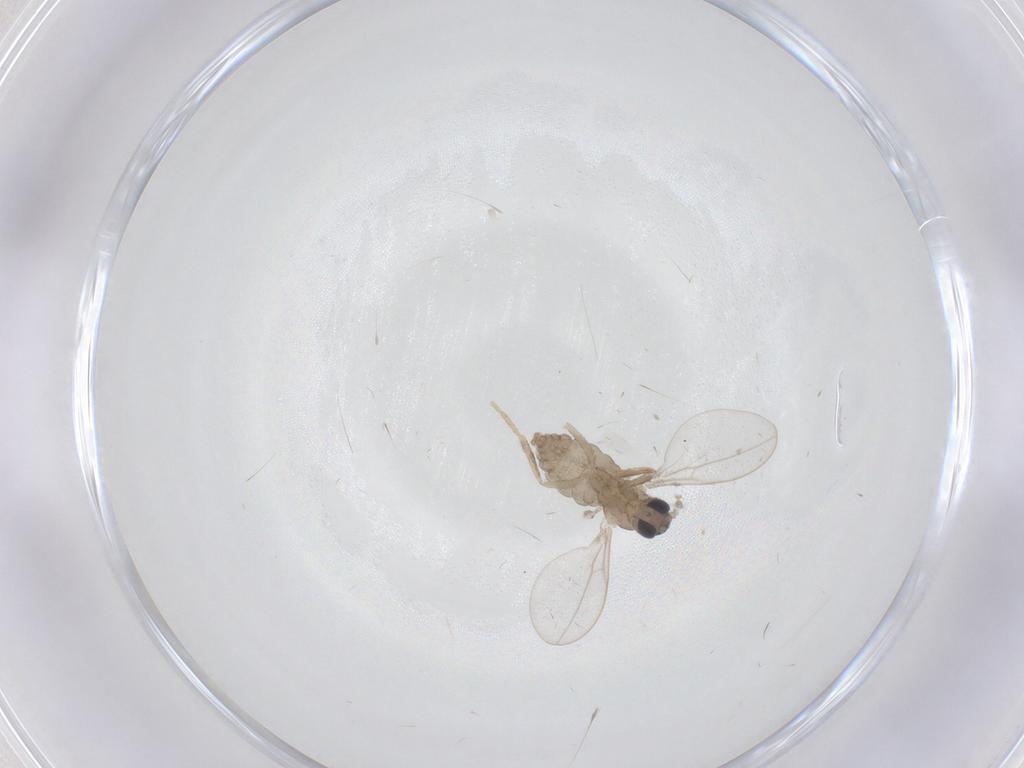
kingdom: Animalia
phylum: Arthropoda
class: Insecta
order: Diptera
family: Cecidomyiidae
